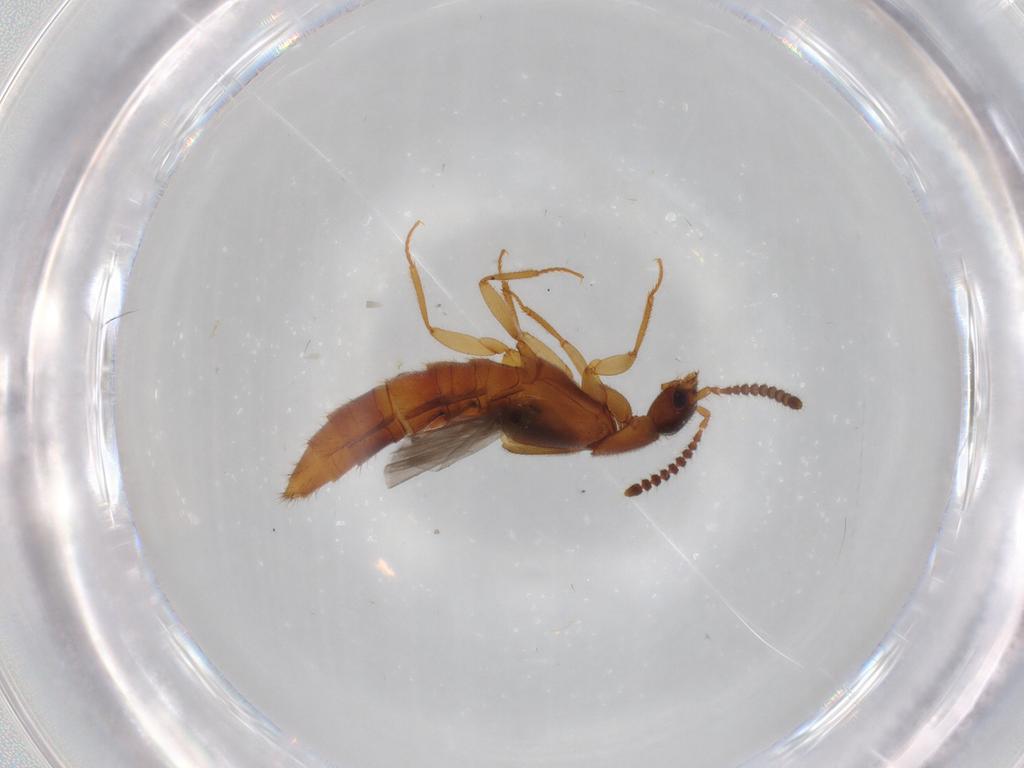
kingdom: Animalia
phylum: Arthropoda
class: Insecta
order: Coleoptera
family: Staphylinidae
